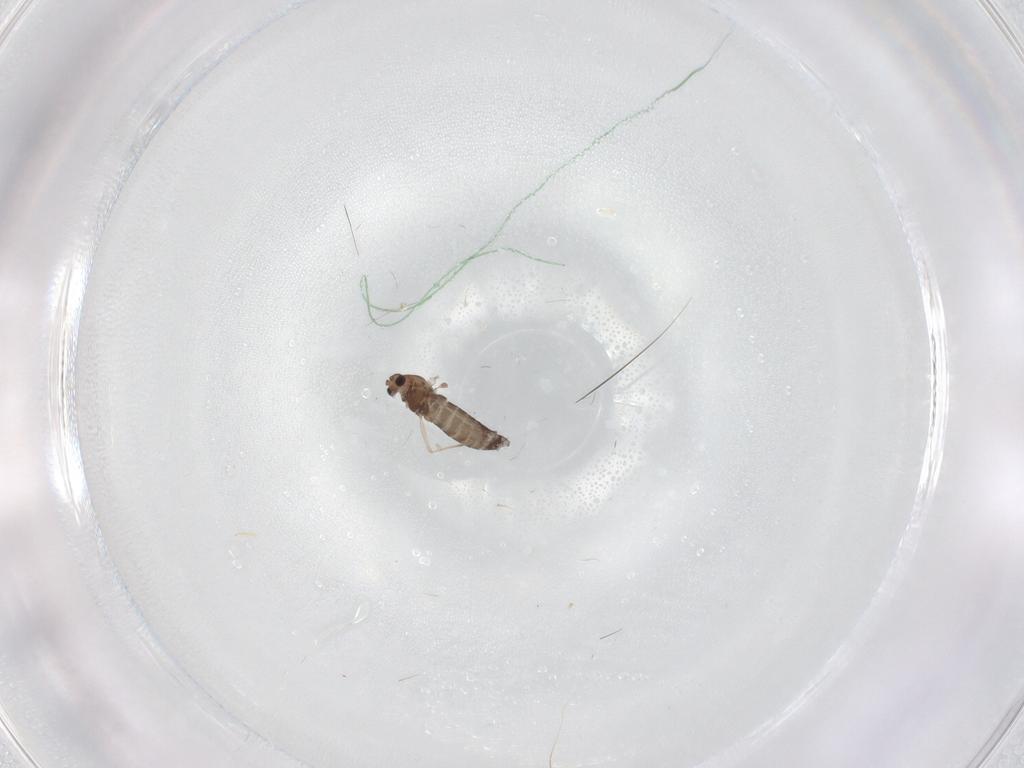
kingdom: Animalia
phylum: Arthropoda
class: Insecta
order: Diptera
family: Chironomidae
